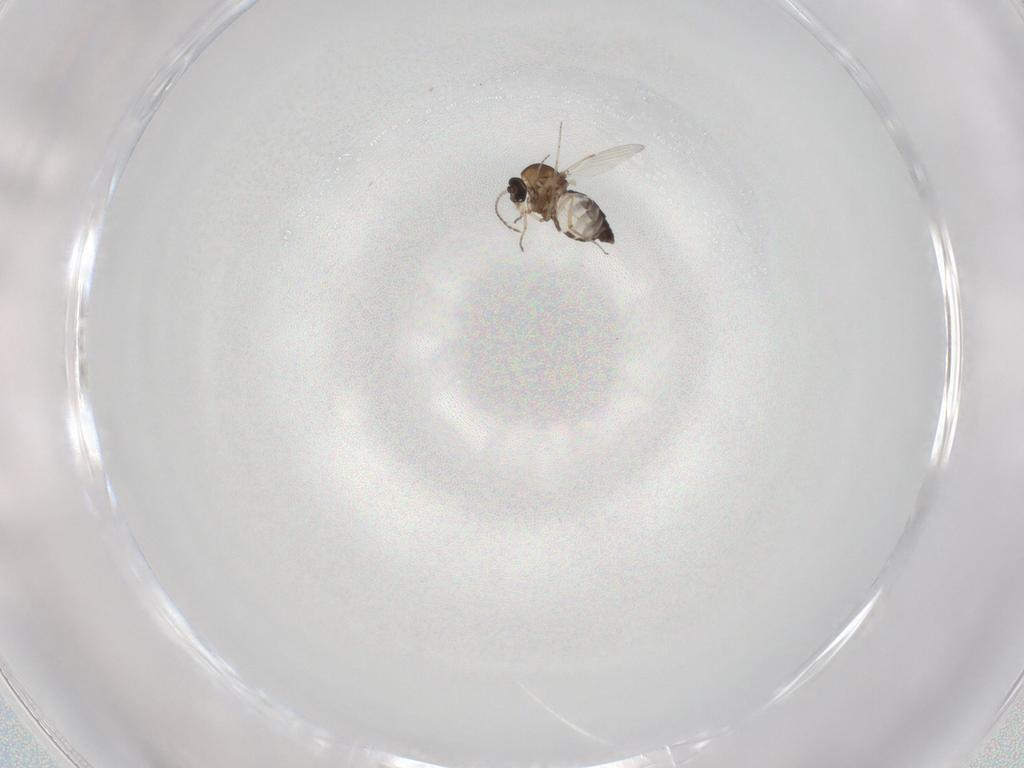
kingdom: Animalia
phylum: Arthropoda
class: Insecta
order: Diptera
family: Ceratopogonidae
